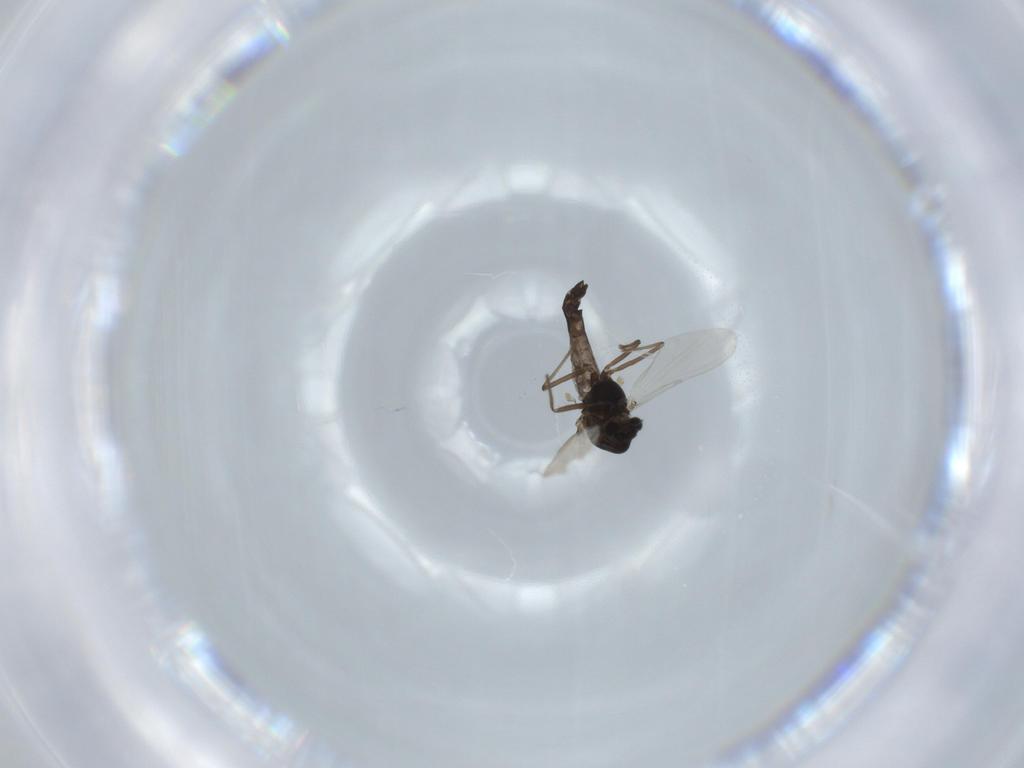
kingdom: Animalia
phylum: Arthropoda
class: Insecta
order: Diptera
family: Chironomidae
